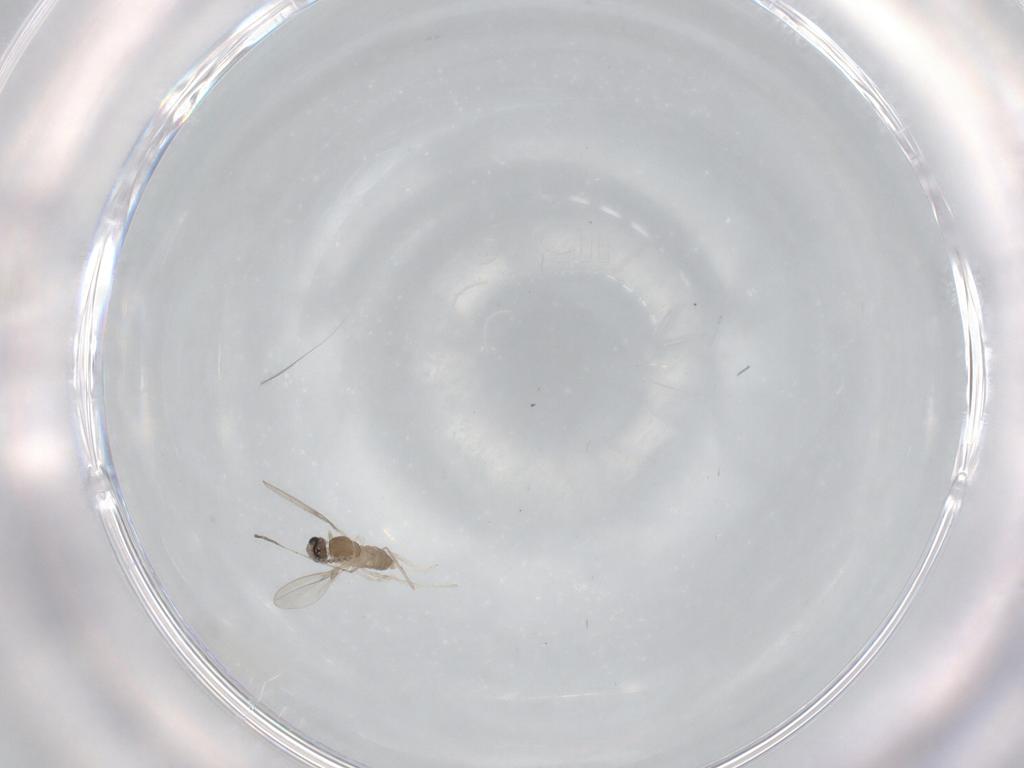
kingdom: Animalia
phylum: Arthropoda
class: Insecta
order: Diptera
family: Cecidomyiidae
